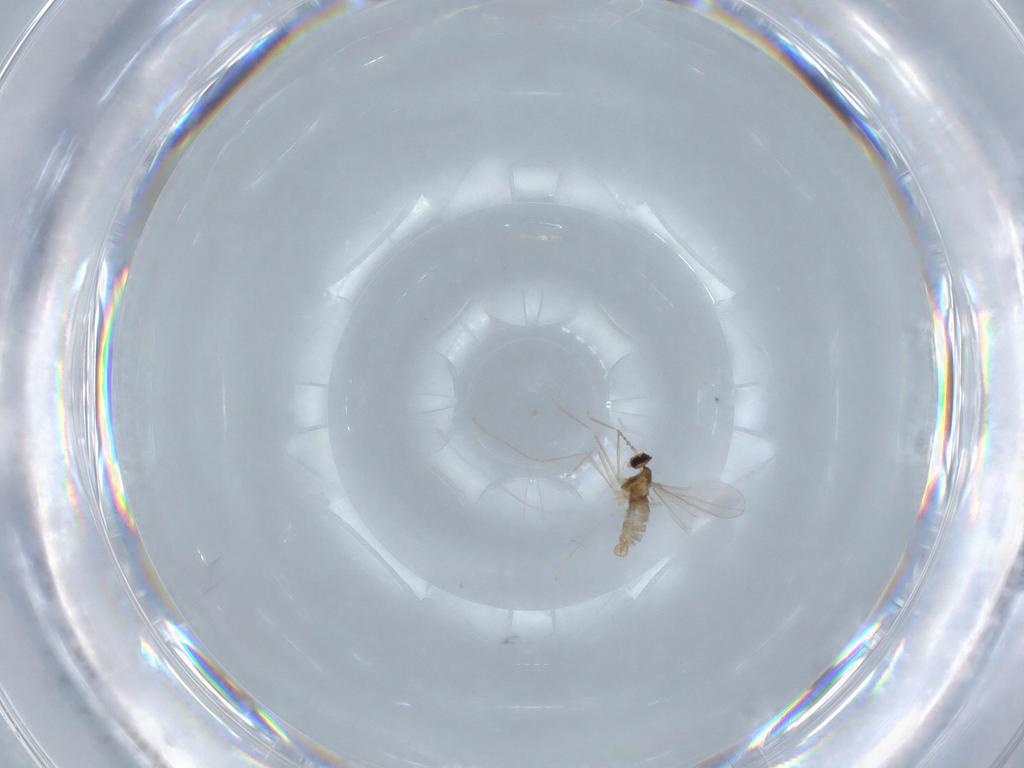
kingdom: Animalia
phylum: Arthropoda
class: Insecta
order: Diptera
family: Cecidomyiidae
